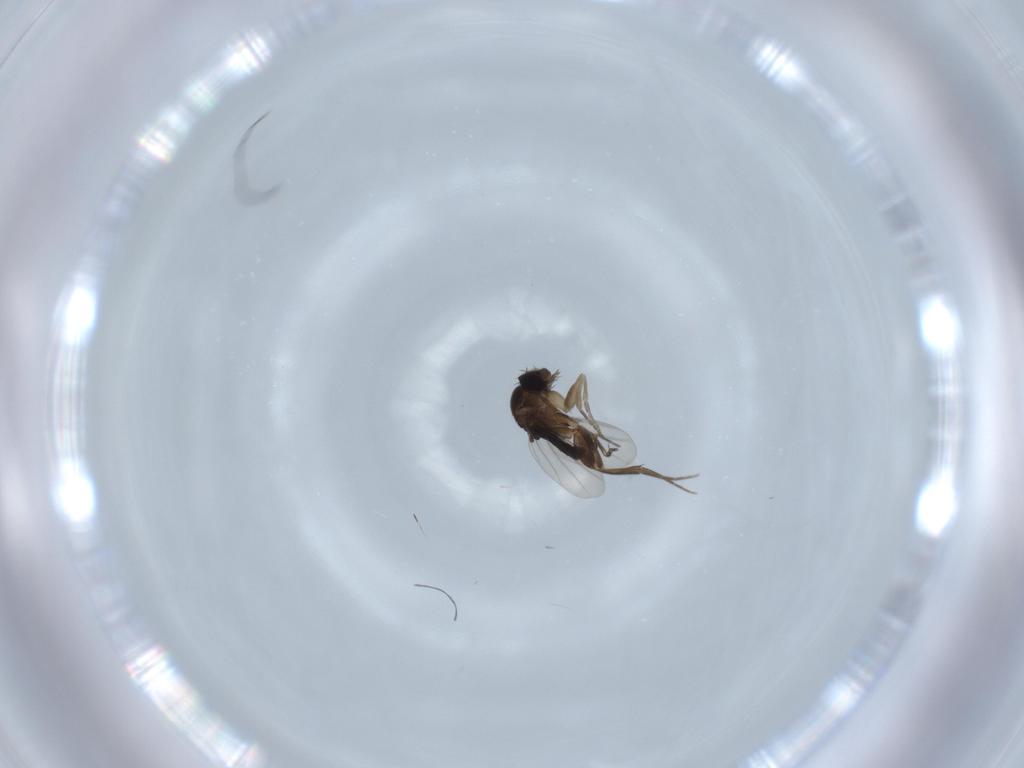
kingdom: Animalia
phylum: Arthropoda
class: Insecta
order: Diptera
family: Phoridae
